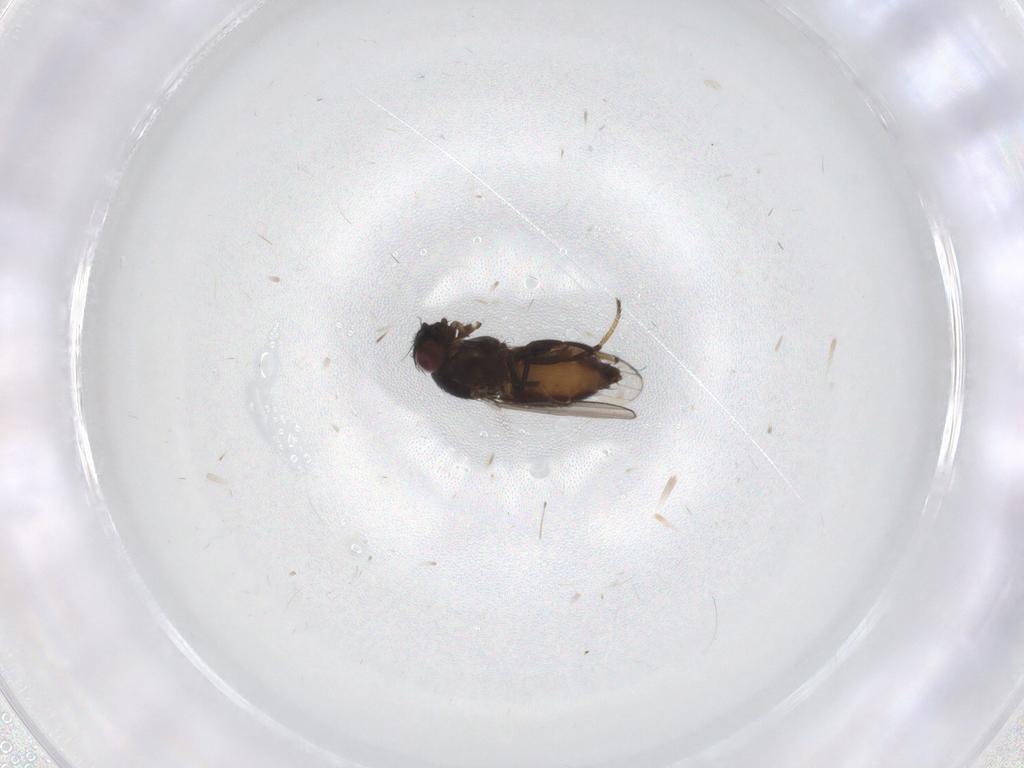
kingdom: Animalia
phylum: Arthropoda
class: Insecta
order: Diptera
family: Milichiidae
